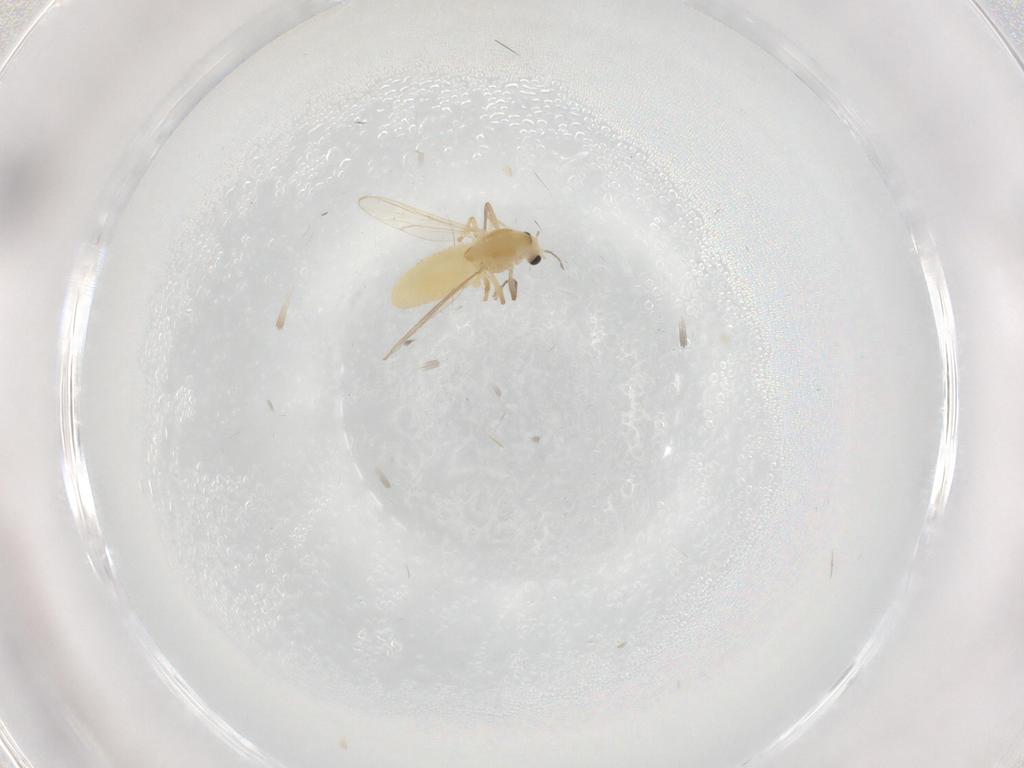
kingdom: Animalia
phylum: Arthropoda
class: Insecta
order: Diptera
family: Chironomidae
